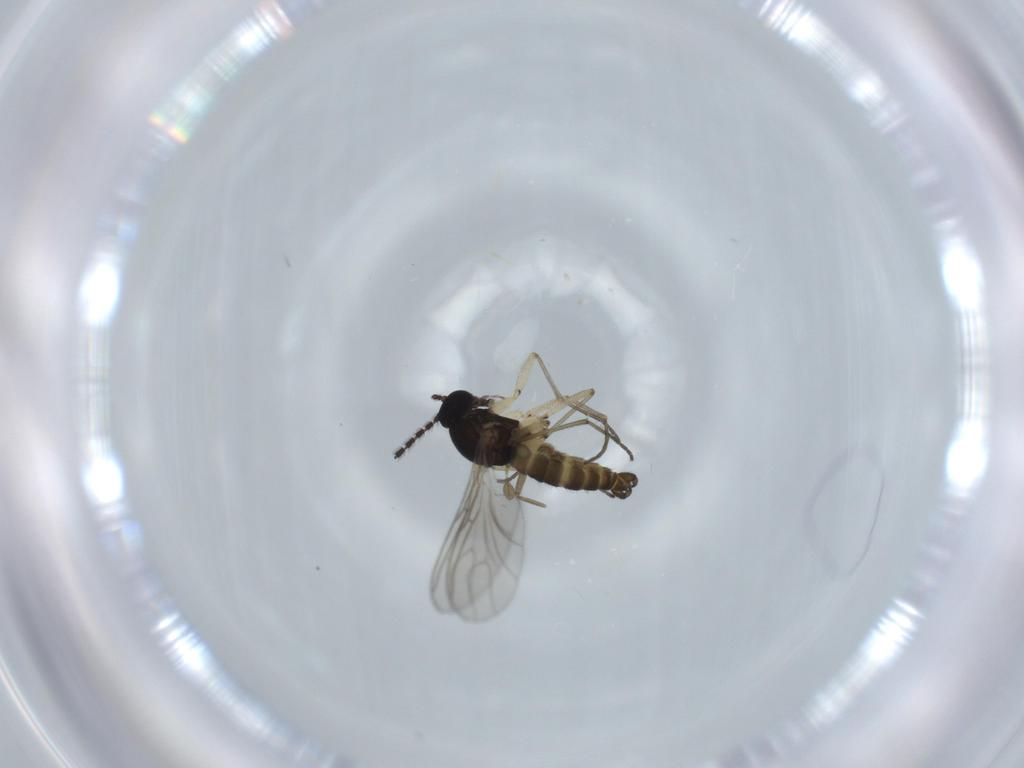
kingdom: Animalia
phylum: Arthropoda
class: Insecta
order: Diptera
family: Sciaridae
